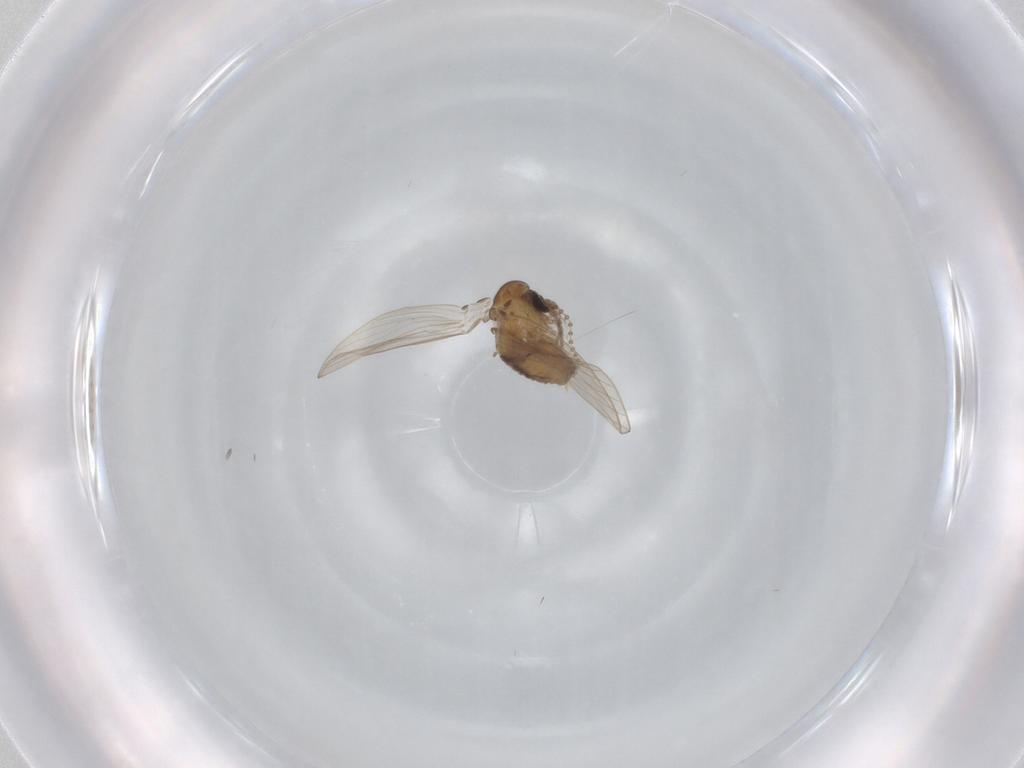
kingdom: Animalia
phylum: Arthropoda
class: Insecta
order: Diptera
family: Psychodidae
